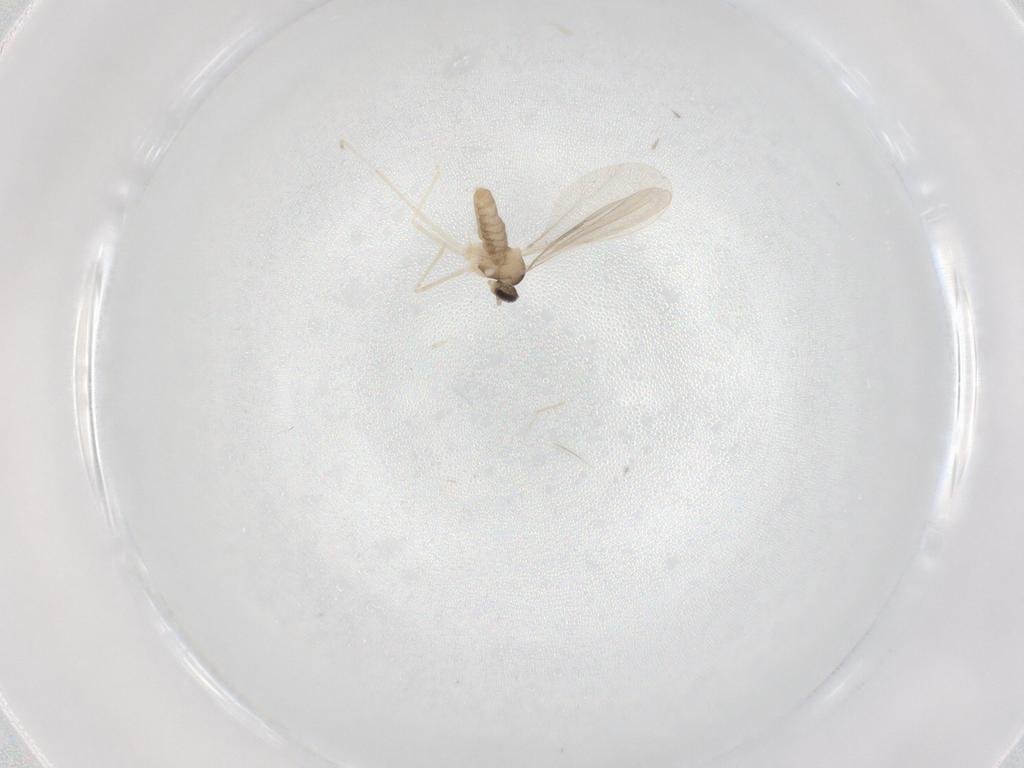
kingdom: Animalia
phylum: Arthropoda
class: Insecta
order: Diptera
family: Cecidomyiidae
